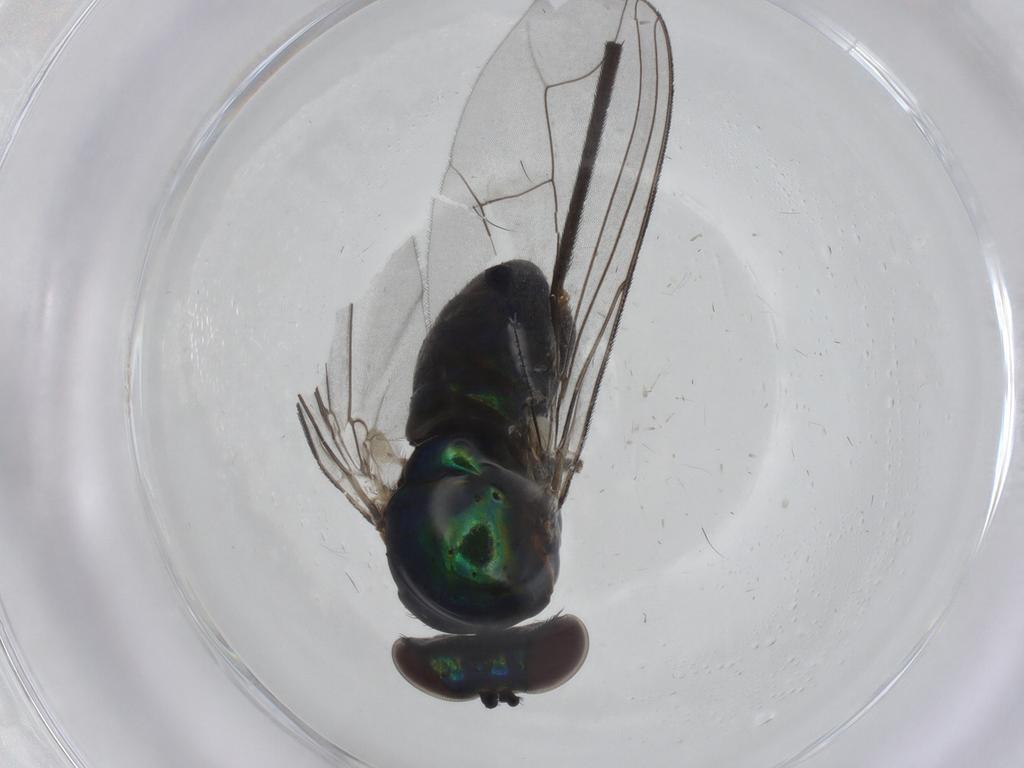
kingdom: Animalia
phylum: Arthropoda
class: Insecta
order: Diptera
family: Dolichopodidae
